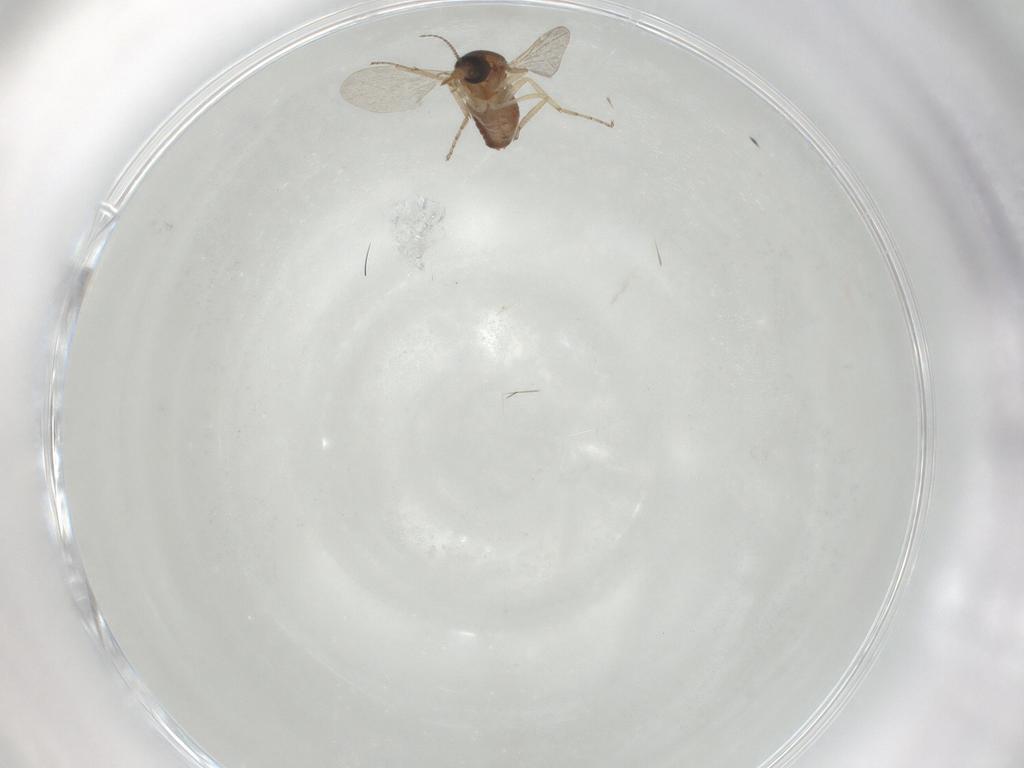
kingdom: Animalia
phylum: Arthropoda
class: Insecta
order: Diptera
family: Ceratopogonidae
